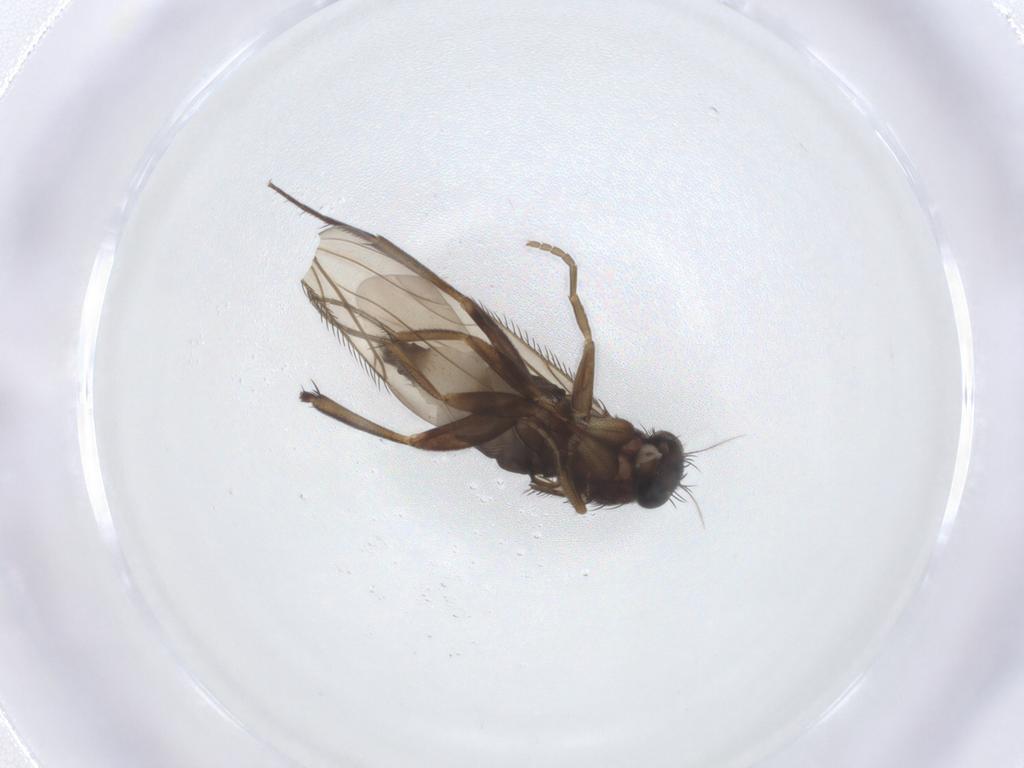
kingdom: Animalia
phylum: Arthropoda
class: Insecta
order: Diptera
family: Phoridae
